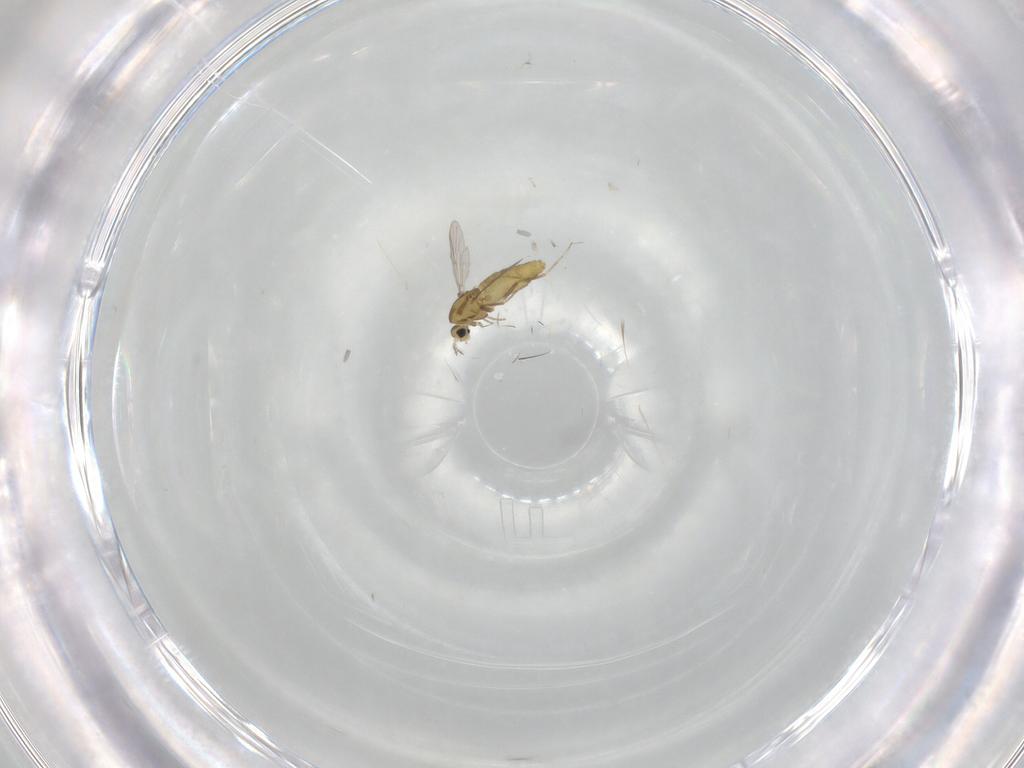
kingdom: Animalia
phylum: Arthropoda
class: Insecta
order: Diptera
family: Chironomidae
